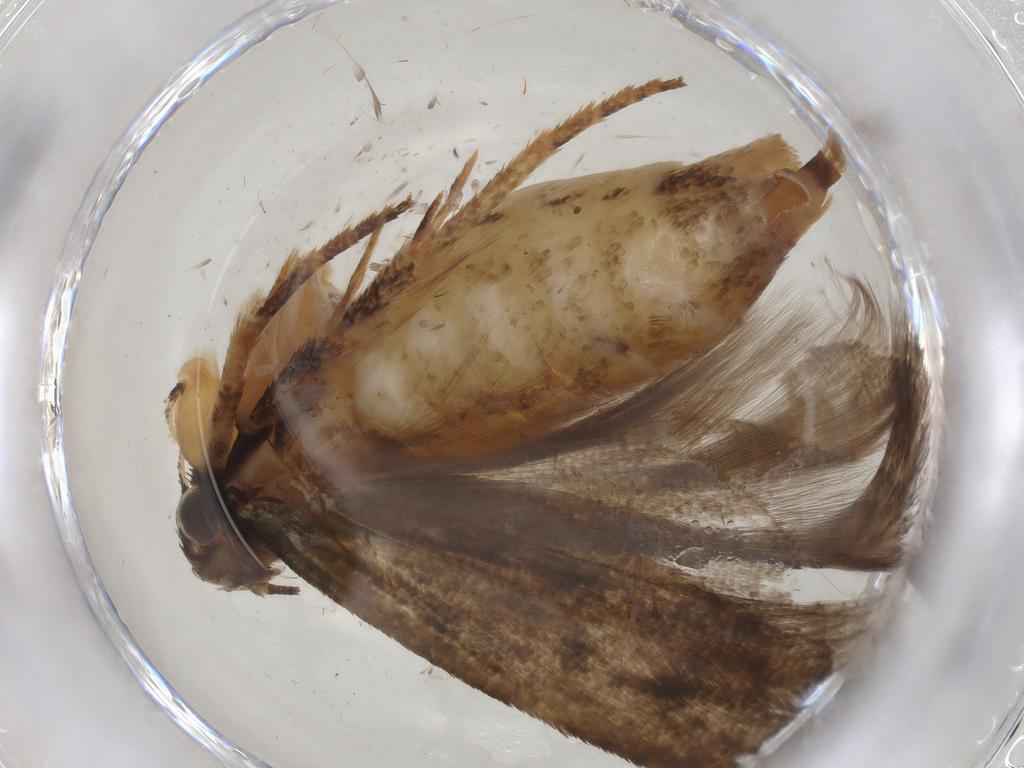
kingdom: Animalia
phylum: Arthropoda
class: Insecta
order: Lepidoptera
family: Gelechiidae
